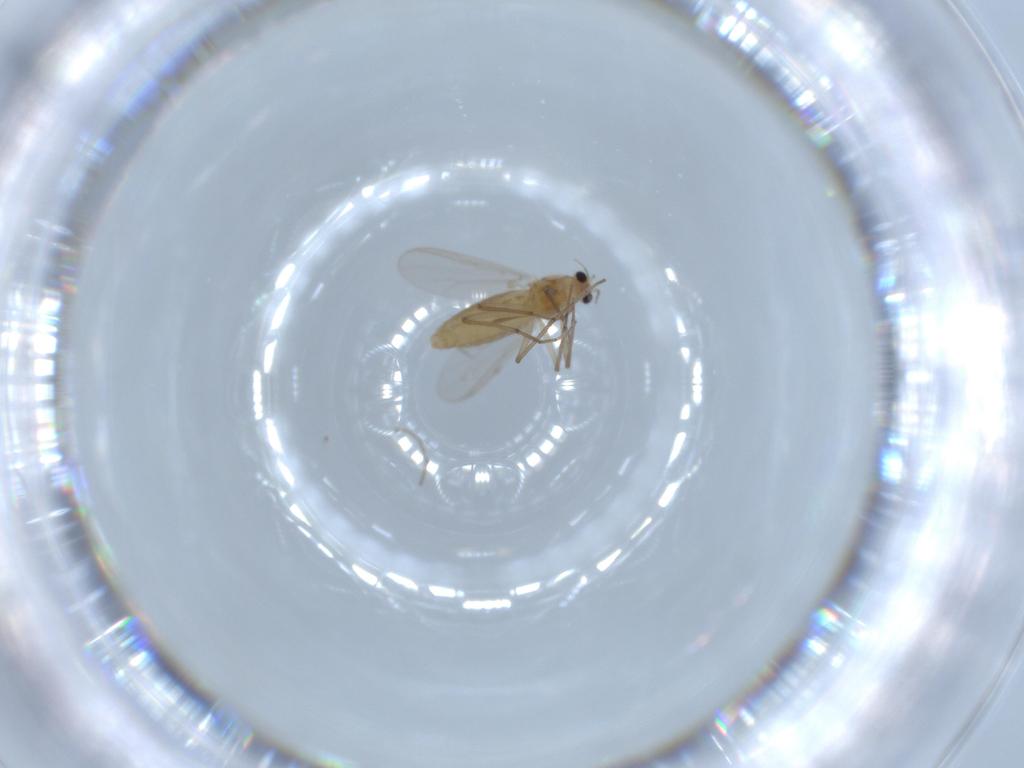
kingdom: Animalia
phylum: Arthropoda
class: Insecta
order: Diptera
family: Chironomidae
